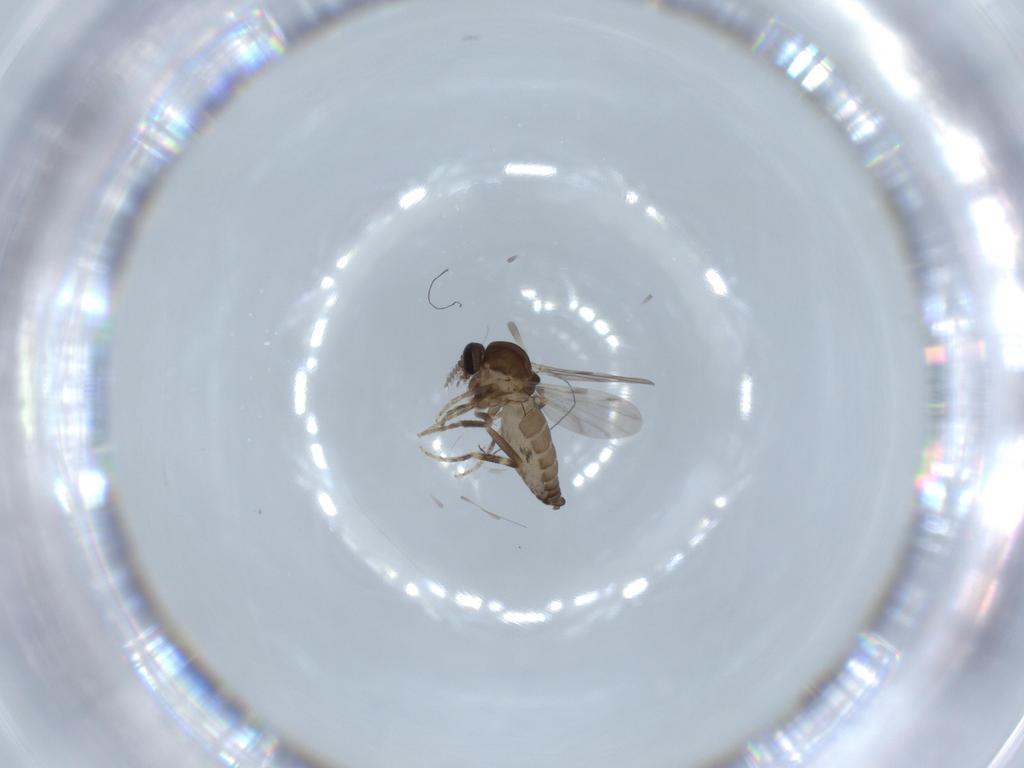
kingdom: Animalia
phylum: Arthropoda
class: Insecta
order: Diptera
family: Ceratopogonidae
